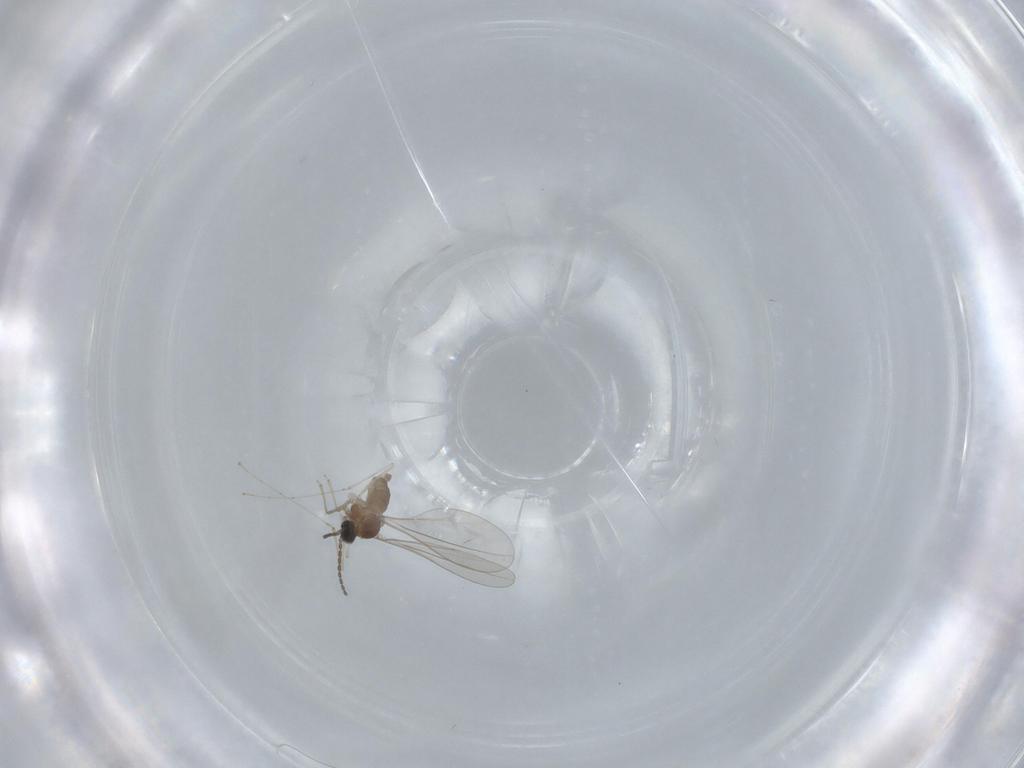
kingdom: Animalia
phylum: Arthropoda
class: Insecta
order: Diptera
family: Cecidomyiidae
